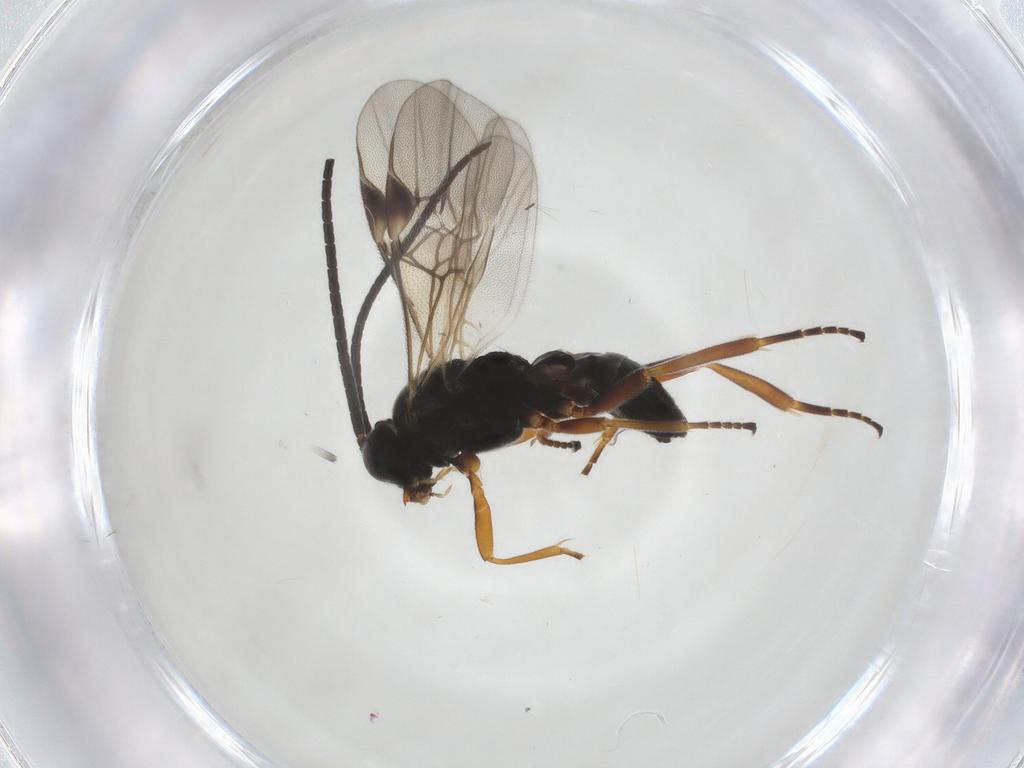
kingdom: Animalia
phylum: Arthropoda
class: Insecta
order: Hymenoptera
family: Braconidae
